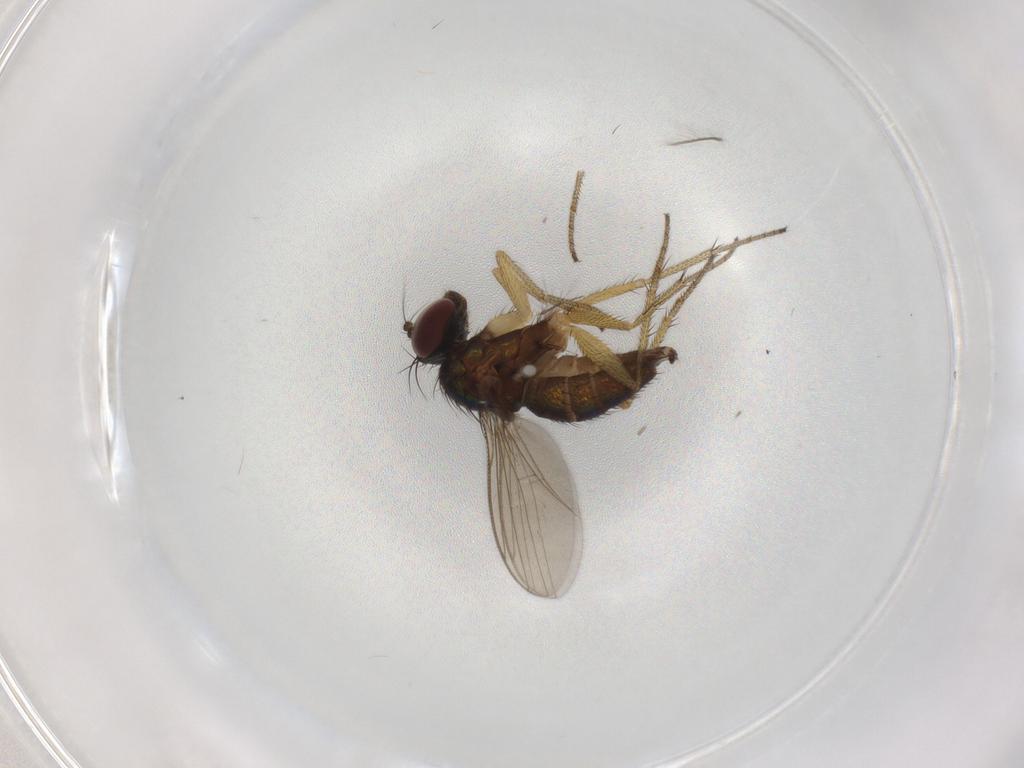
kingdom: Animalia
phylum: Arthropoda
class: Insecta
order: Diptera
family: Dolichopodidae
